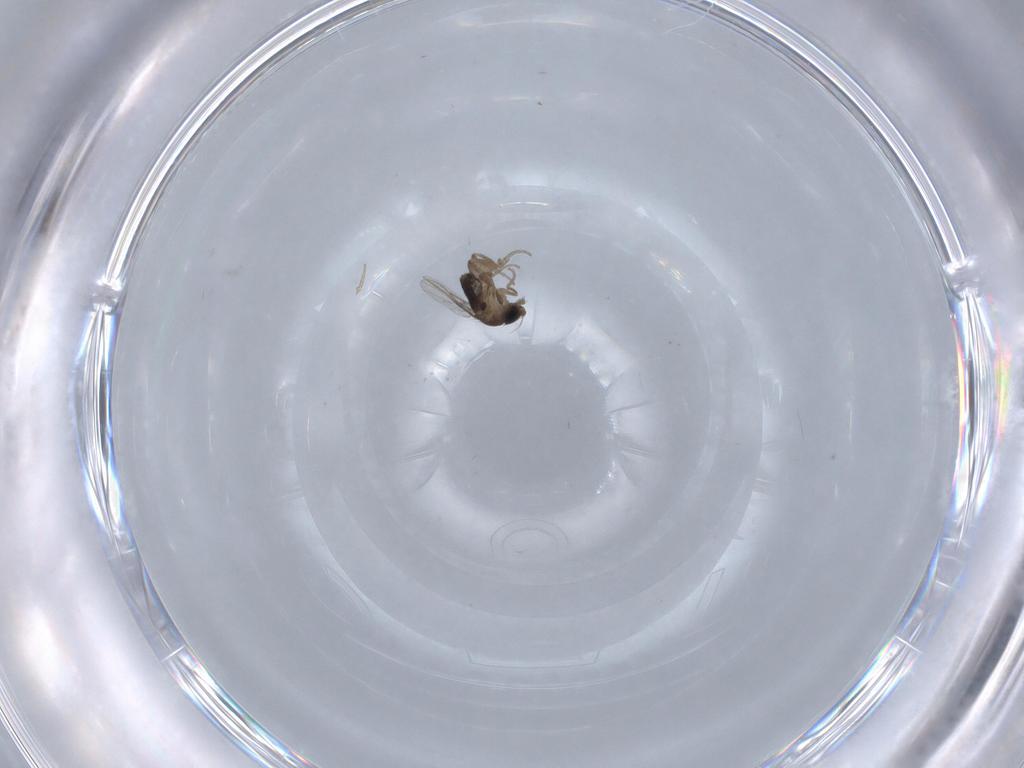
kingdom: Animalia
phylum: Arthropoda
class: Insecta
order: Diptera
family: Phoridae
